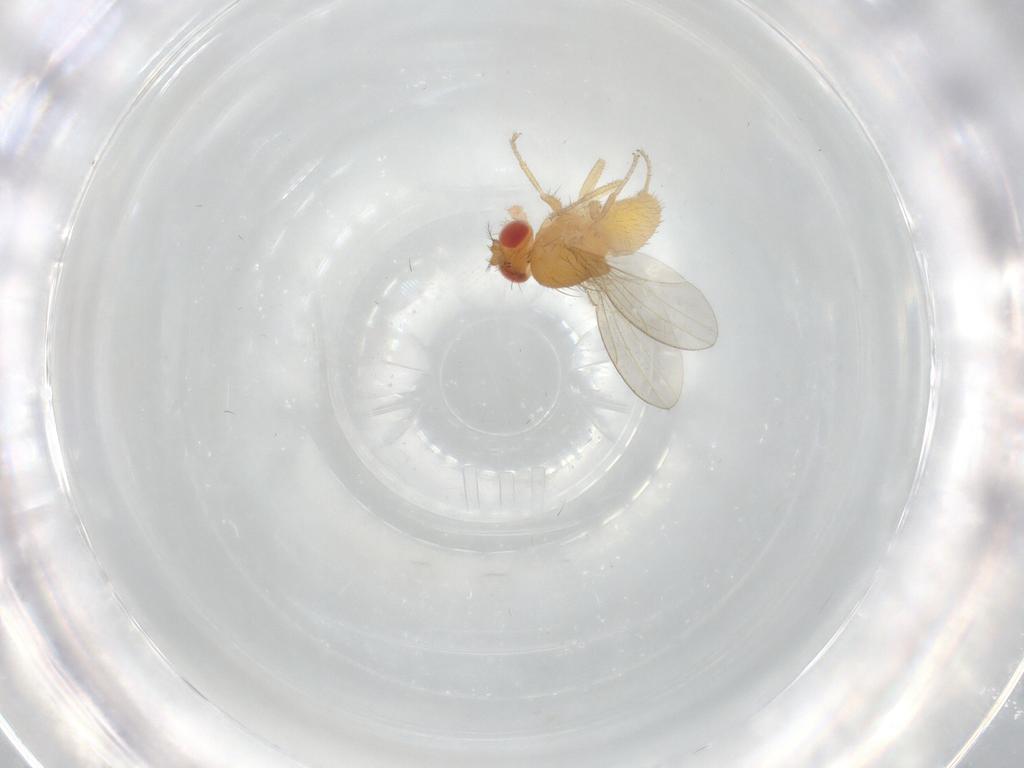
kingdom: Animalia
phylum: Arthropoda
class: Insecta
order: Diptera
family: Drosophilidae
